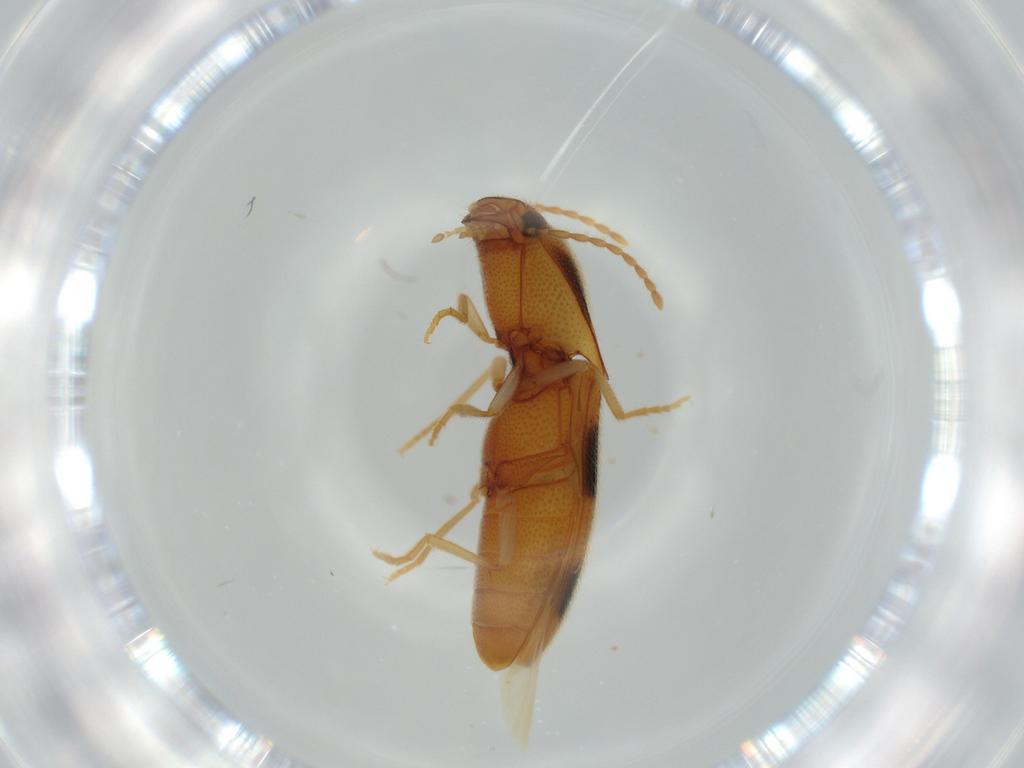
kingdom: Animalia
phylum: Arthropoda
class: Insecta
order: Coleoptera
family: Elateridae
